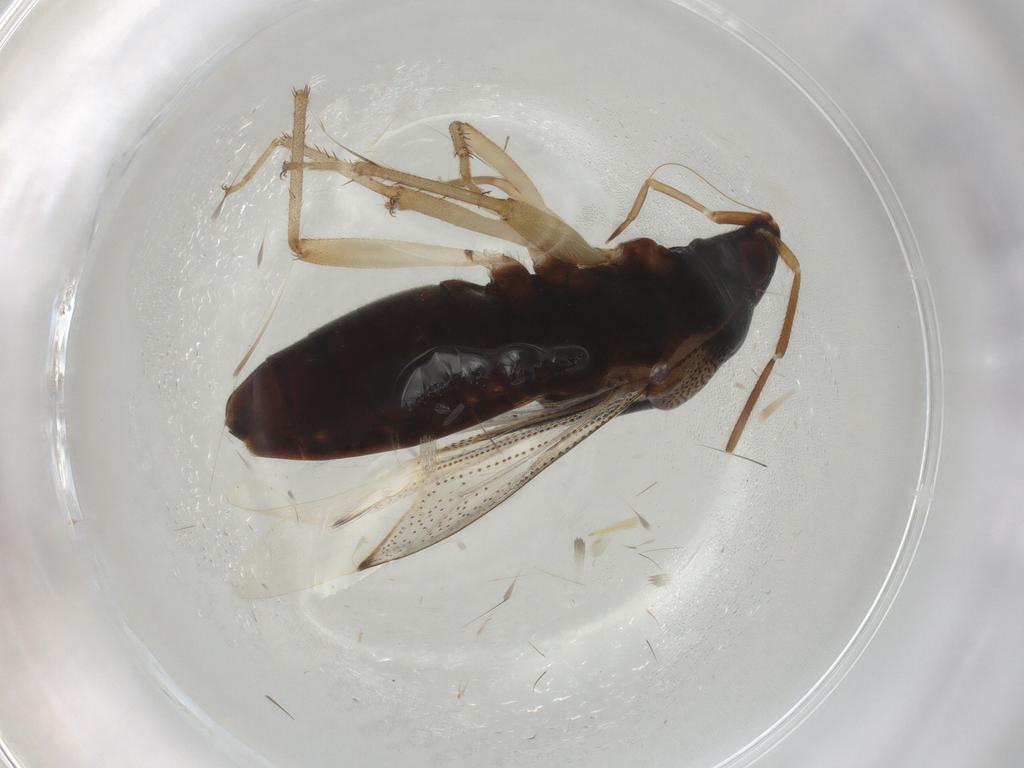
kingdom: Animalia
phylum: Arthropoda
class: Insecta
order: Hemiptera
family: Rhyparochromidae
